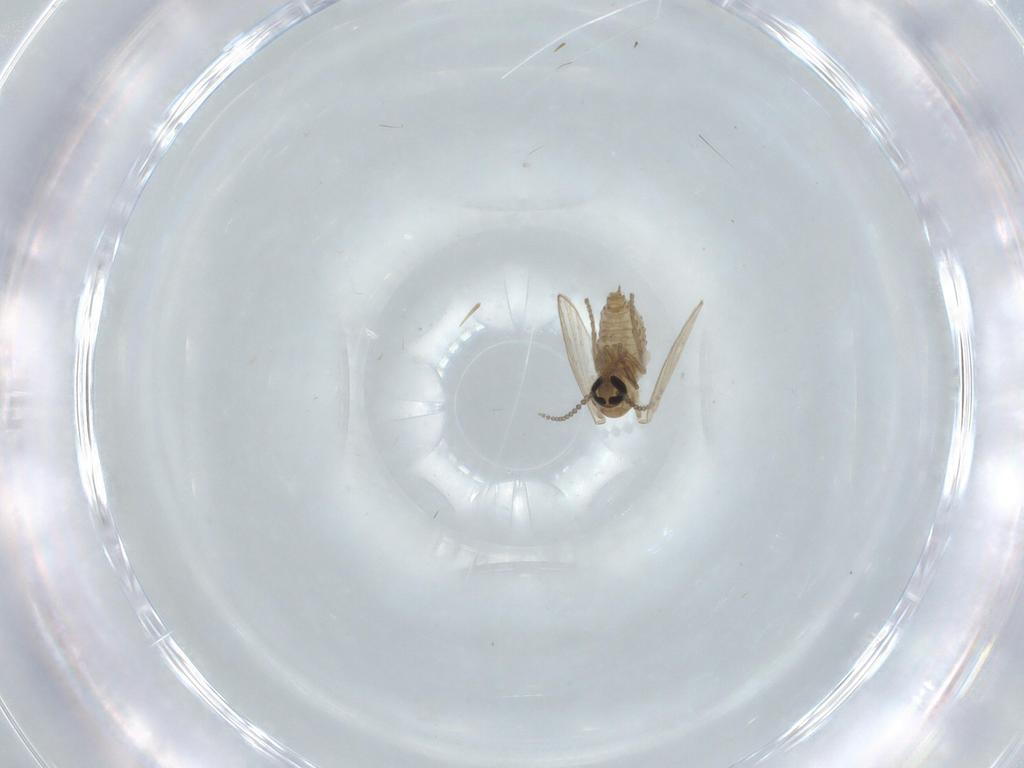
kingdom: Animalia
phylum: Arthropoda
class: Insecta
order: Diptera
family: Psychodidae
